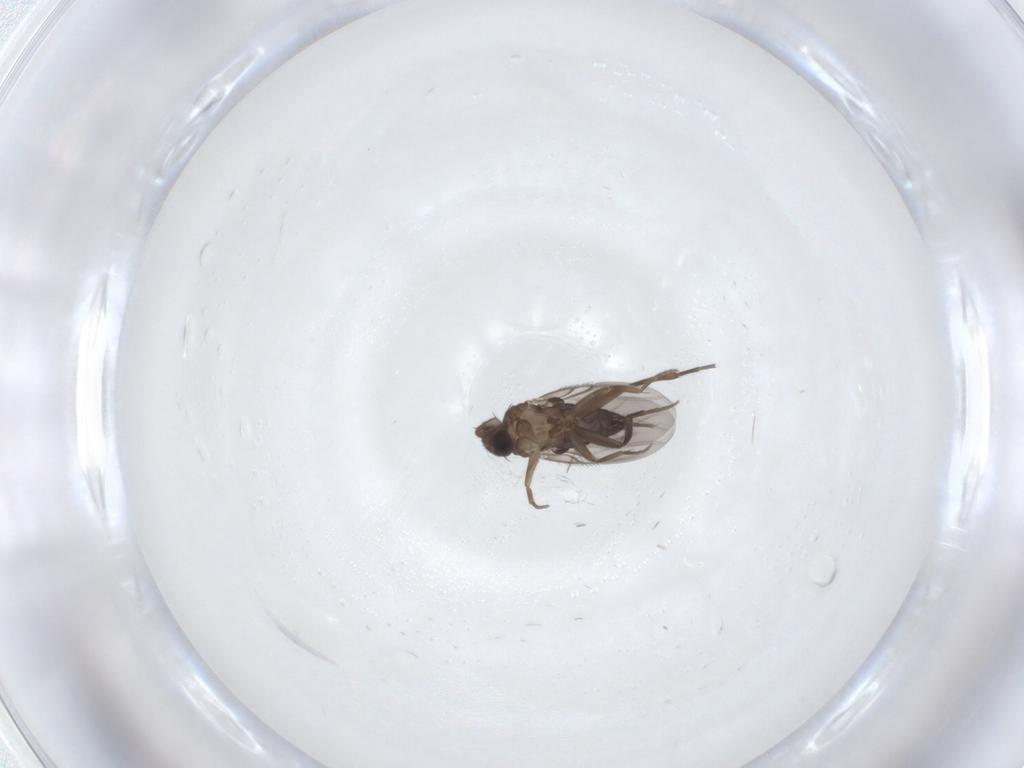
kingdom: Animalia
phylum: Arthropoda
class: Insecta
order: Diptera
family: Phoridae
